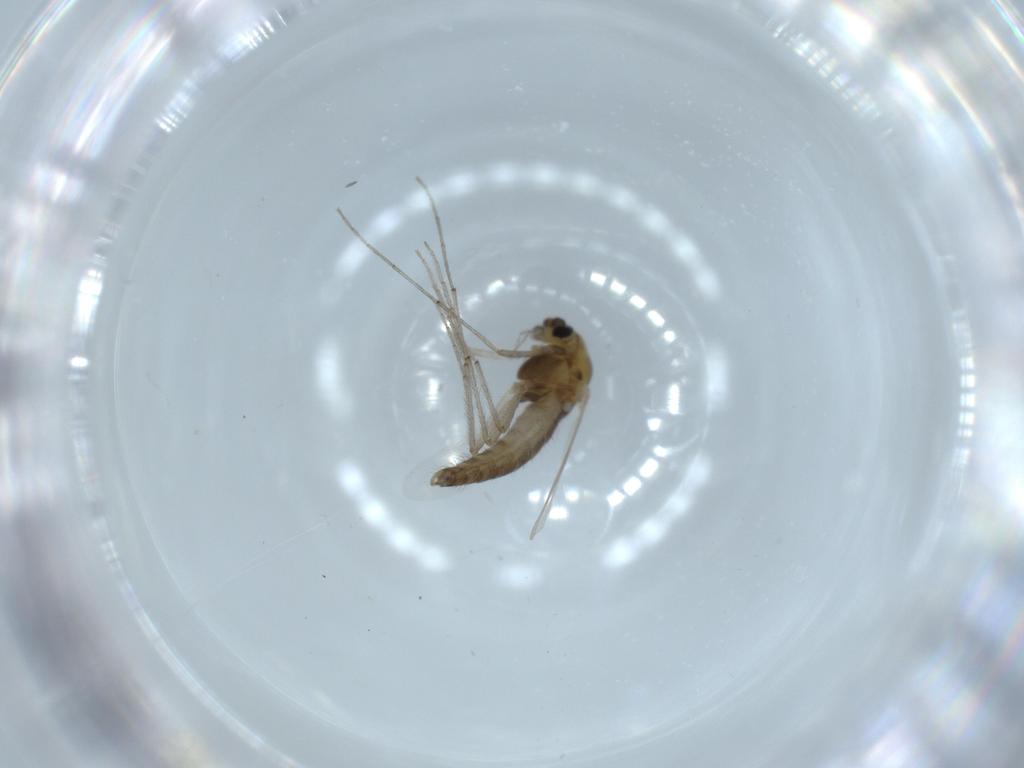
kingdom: Animalia
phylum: Arthropoda
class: Insecta
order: Diptera
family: Chironomidae
